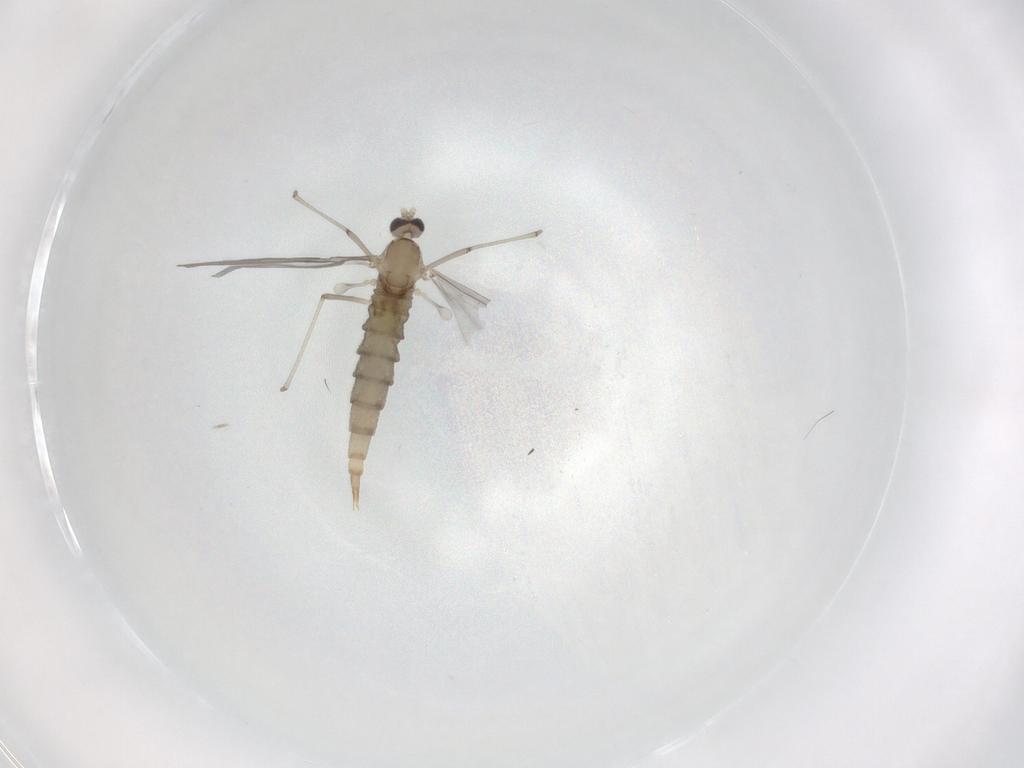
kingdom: Animalia
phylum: Arthropoda
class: Insecta
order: Diptera
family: Cecidomyiidae
